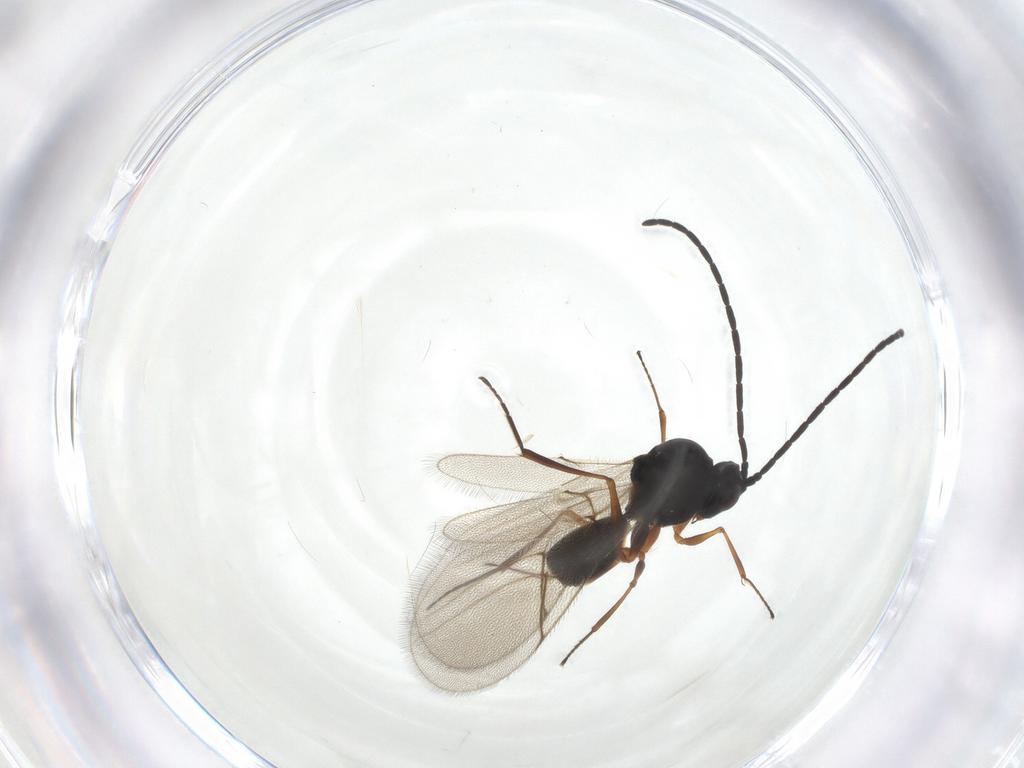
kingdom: Animalia
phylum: Arthropoda
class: Insecta
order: Hymenoptera
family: Figitidae
